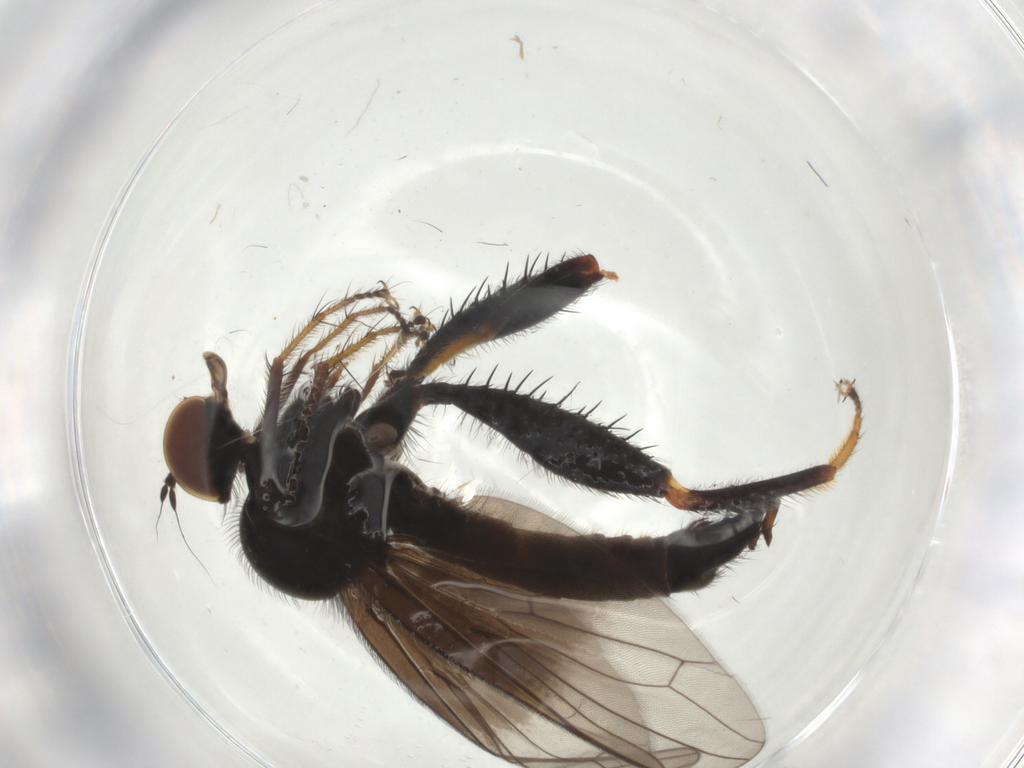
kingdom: Animalia
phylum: Arthropoda
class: Insecta
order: Diptera
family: Hybotidae
